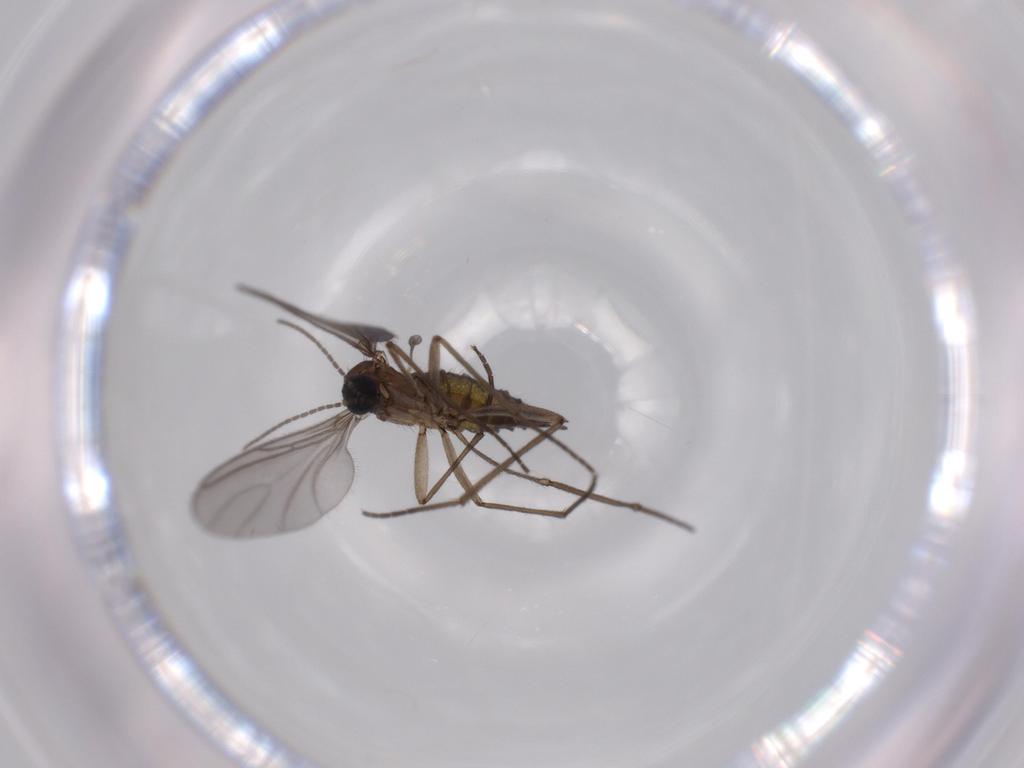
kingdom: Animalia
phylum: Arthropoda
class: Insecta
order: Diptera
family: Sciaridae
